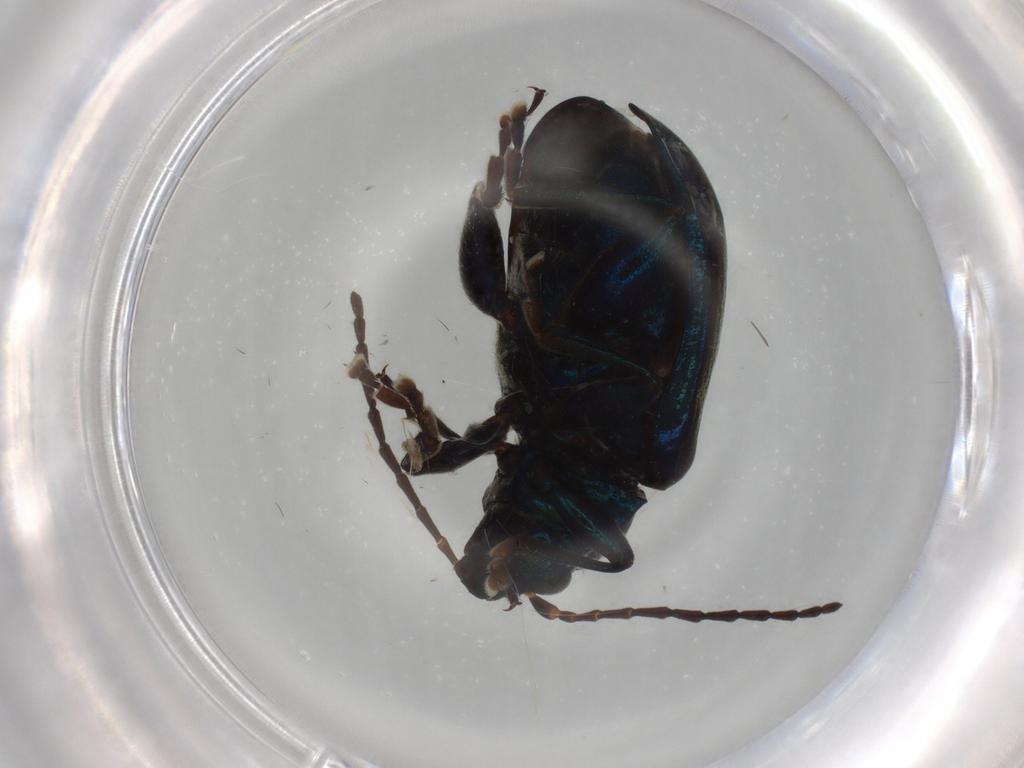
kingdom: Animalia
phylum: Arthropoda
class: Insecta
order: Coleoptera
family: Chrysomelidae
